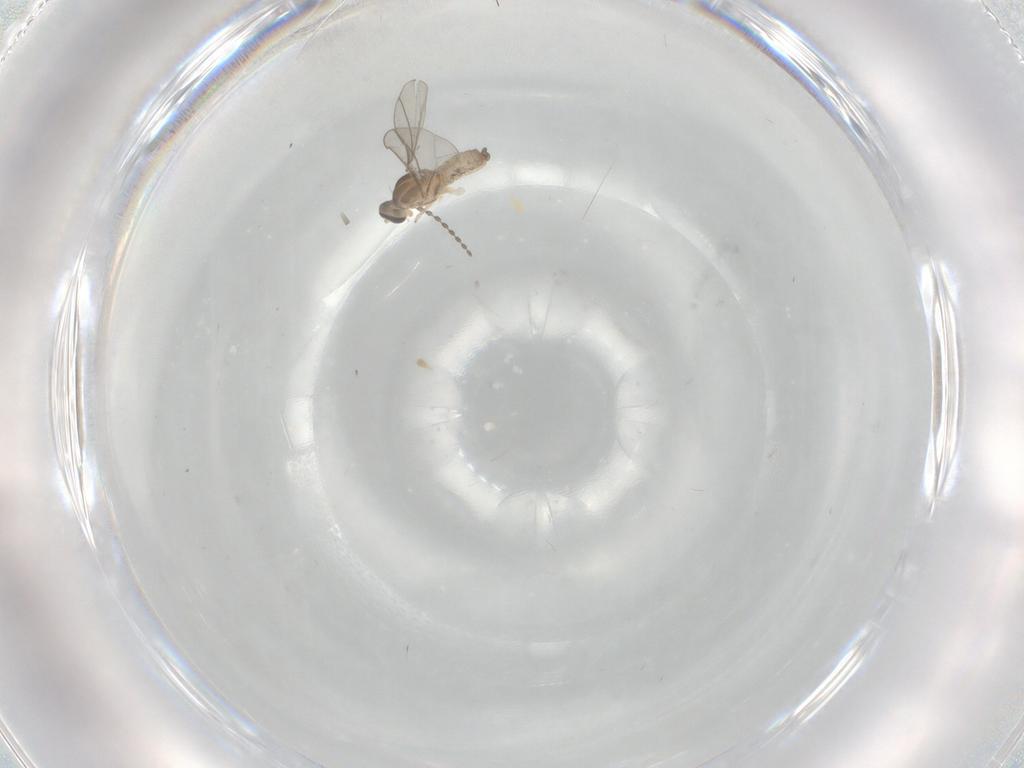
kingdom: Animalia
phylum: Arthropoda
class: Insecta
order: Diptera
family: Cecidomyiidae
